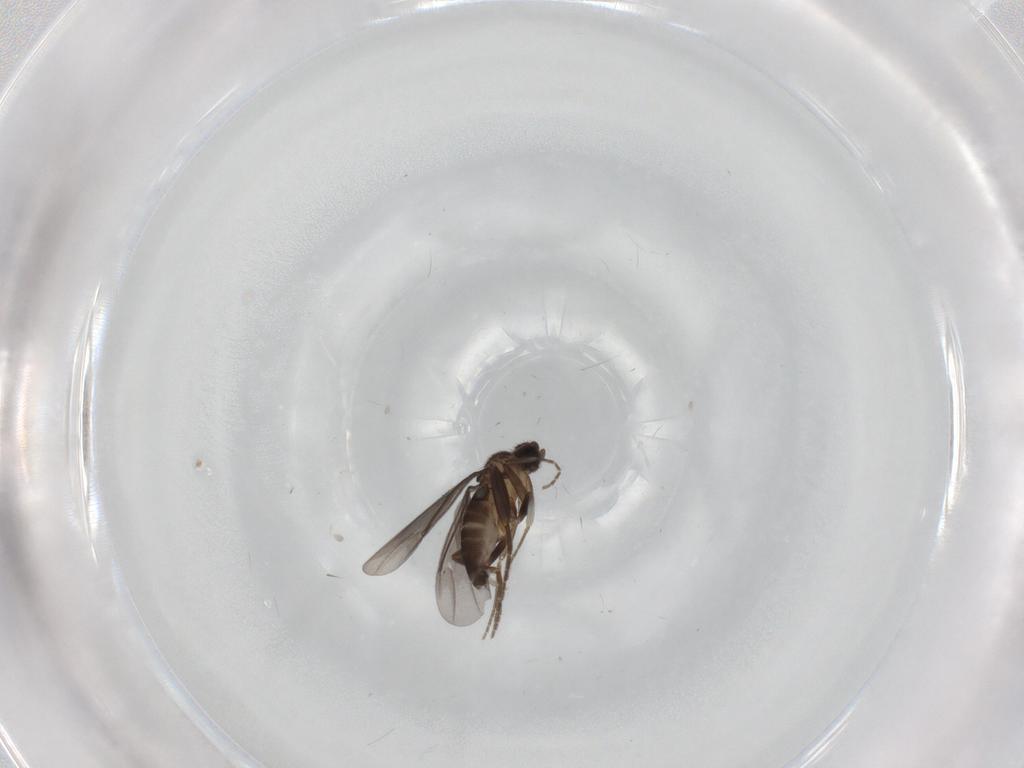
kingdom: Animalia
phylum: Arthropoda
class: Insecta
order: Diptera
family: Phoridae
